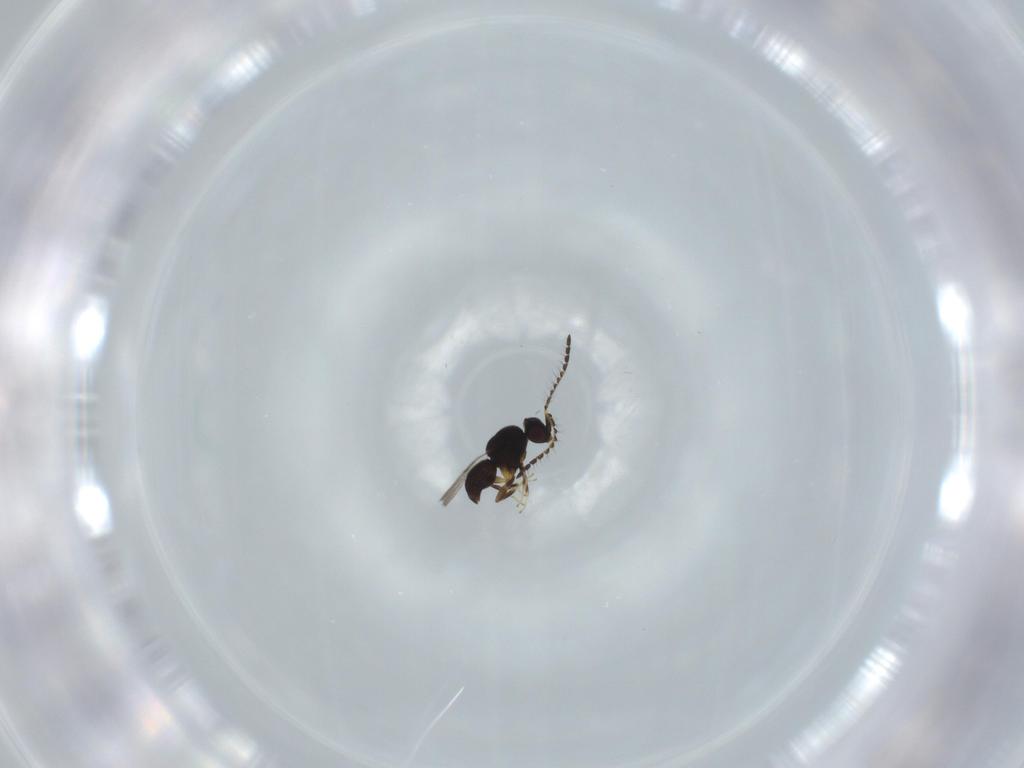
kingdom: Animalia
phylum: Arthropoda
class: Insecta
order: Hymenoptera
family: Ceraphronidae
